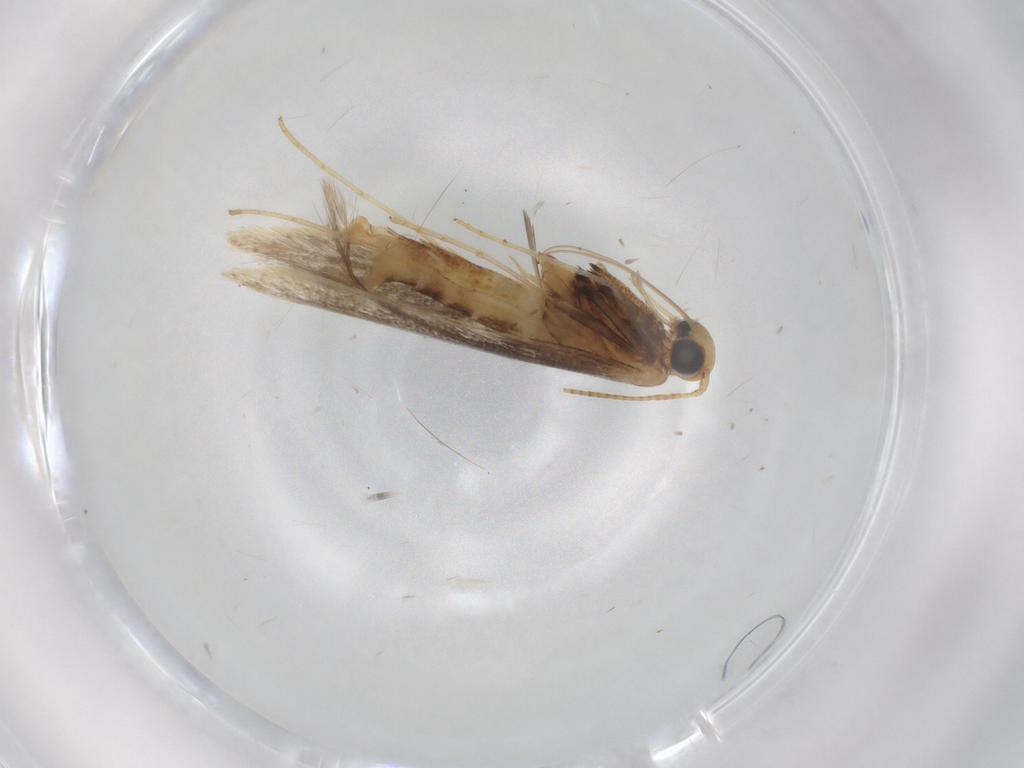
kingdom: Animalia
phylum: Arthropoda
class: Insecta
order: Lepidoptera
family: Gracillariidae
